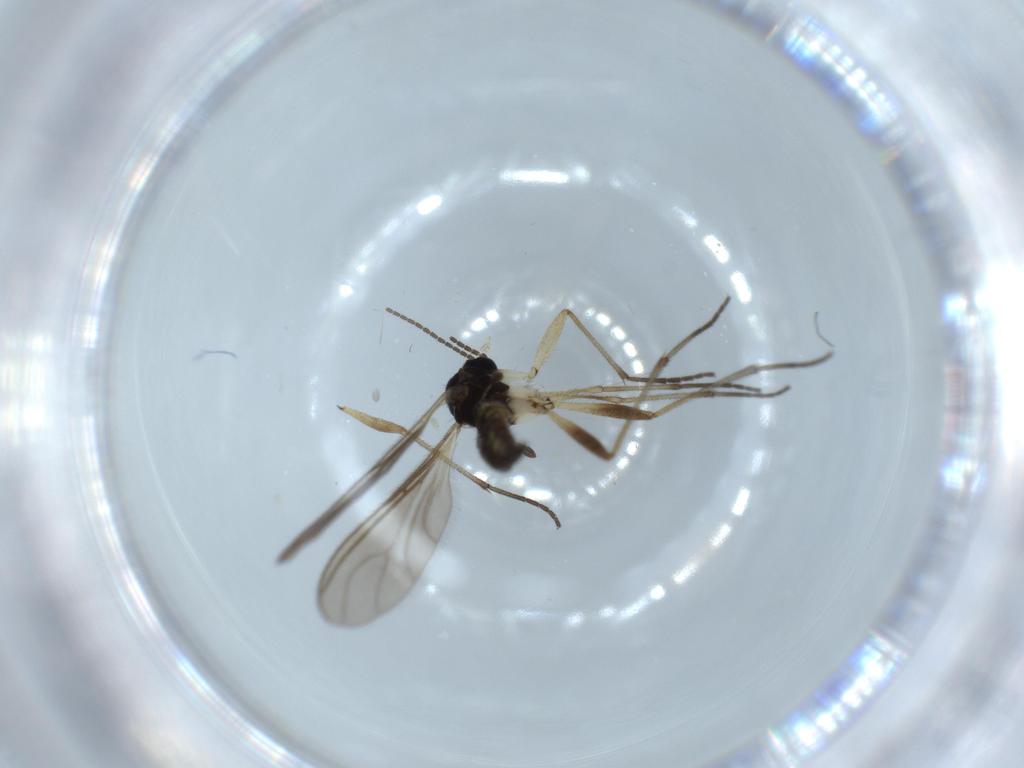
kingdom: Animalia
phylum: Arthropoda
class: Insecta
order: Diptera
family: Sciaridae
